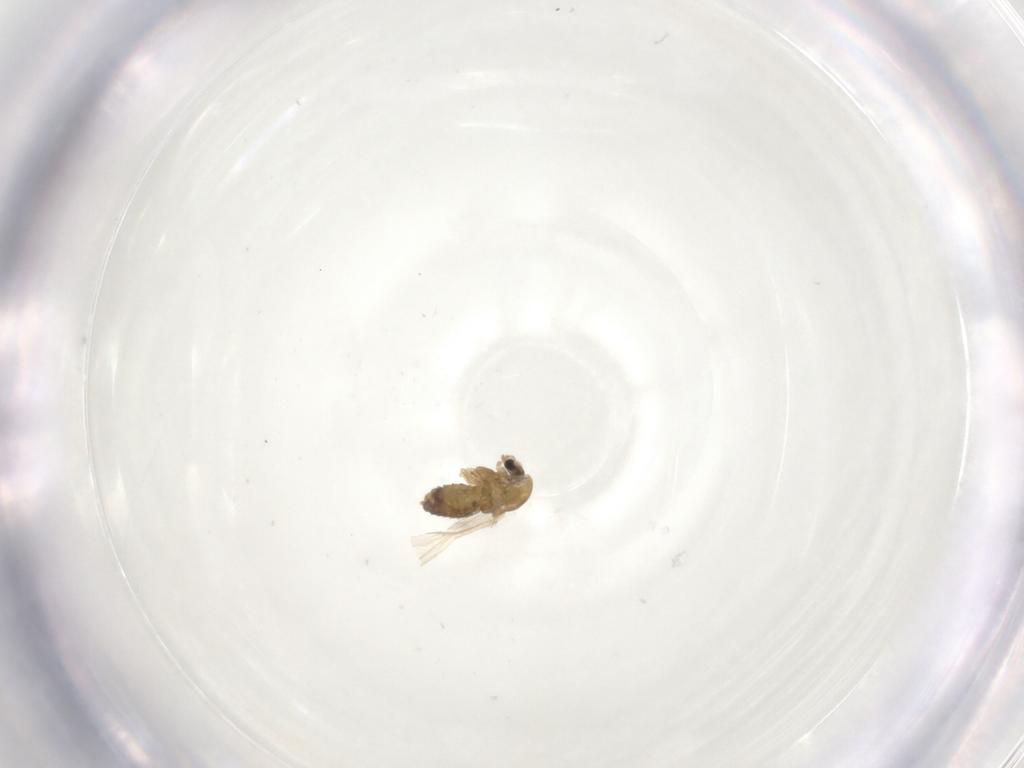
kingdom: Animalia
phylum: Arthropoda
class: Insecta
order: Diptera
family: Chironomidae
